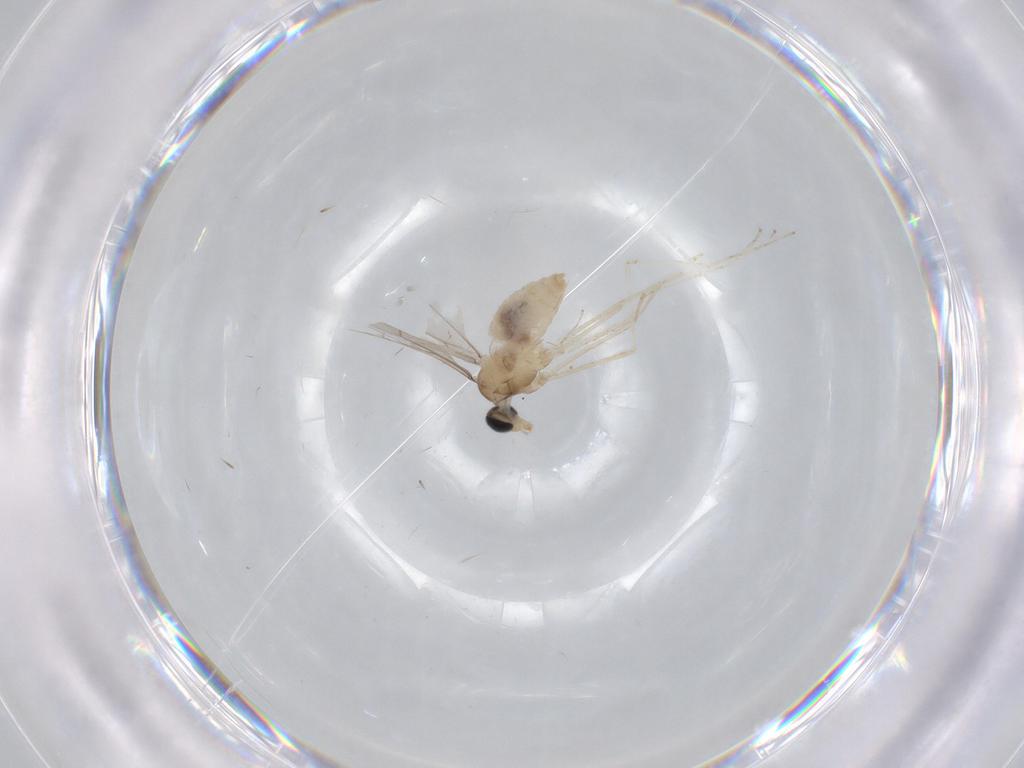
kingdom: Animalia
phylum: Arthropoda
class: Insecta
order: Diptera
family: Cecidomyiidae
